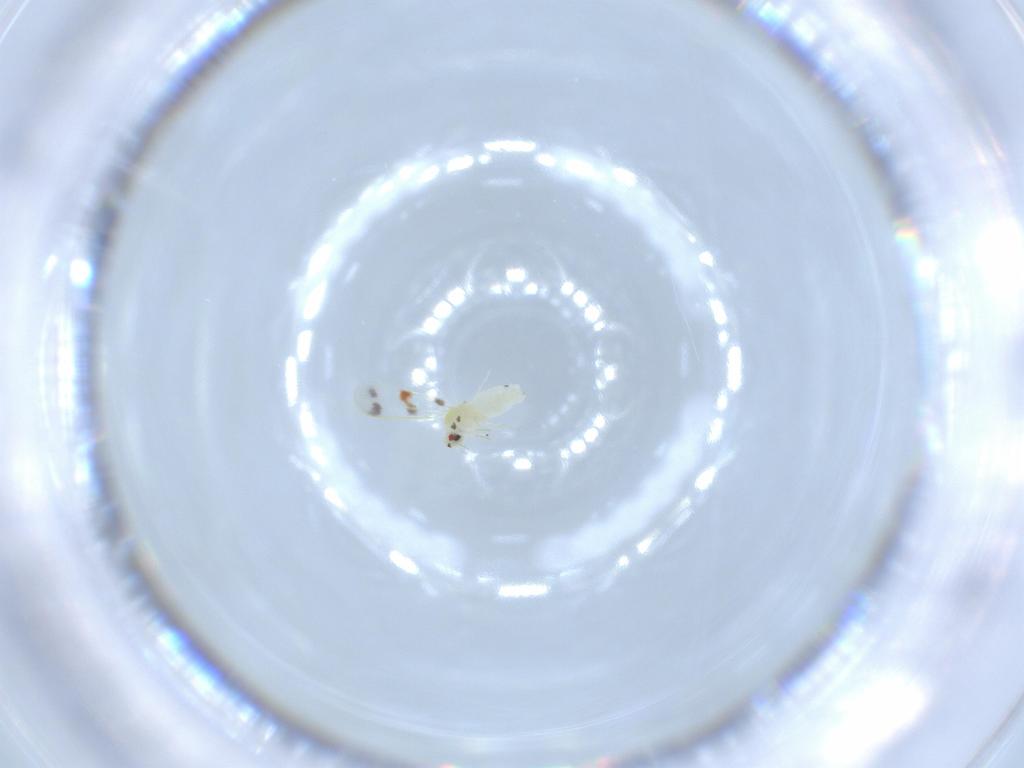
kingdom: Animalia
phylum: Arthropoda
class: Insecta
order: Hemiptera
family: Aleyrodidae
